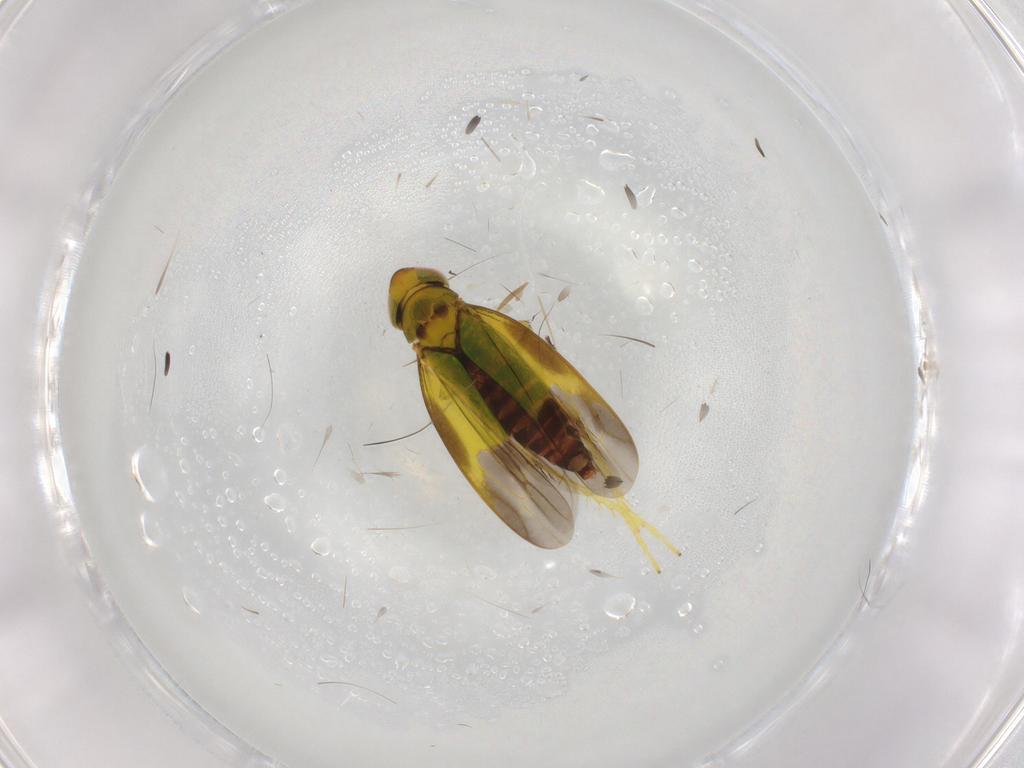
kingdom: Animalia
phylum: Arthropoda
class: Insecta
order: Hemiptera
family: Cicadellidae
